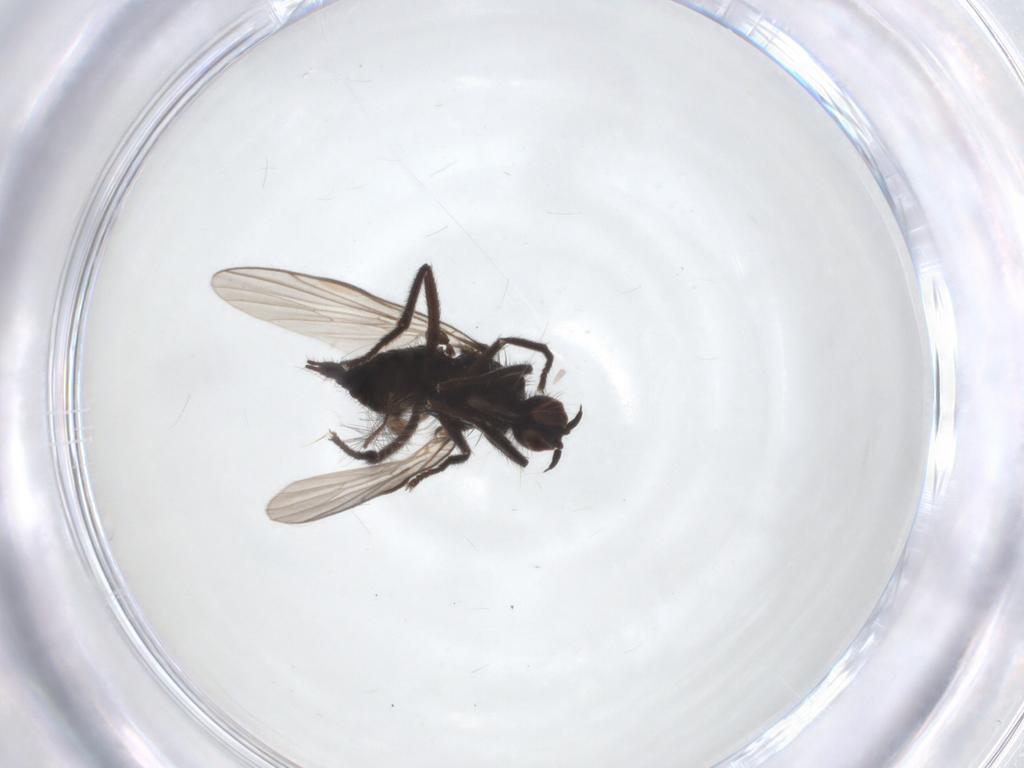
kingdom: Animalia
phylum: Arthropoda
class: Insecta
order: Diptera
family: Empididae
